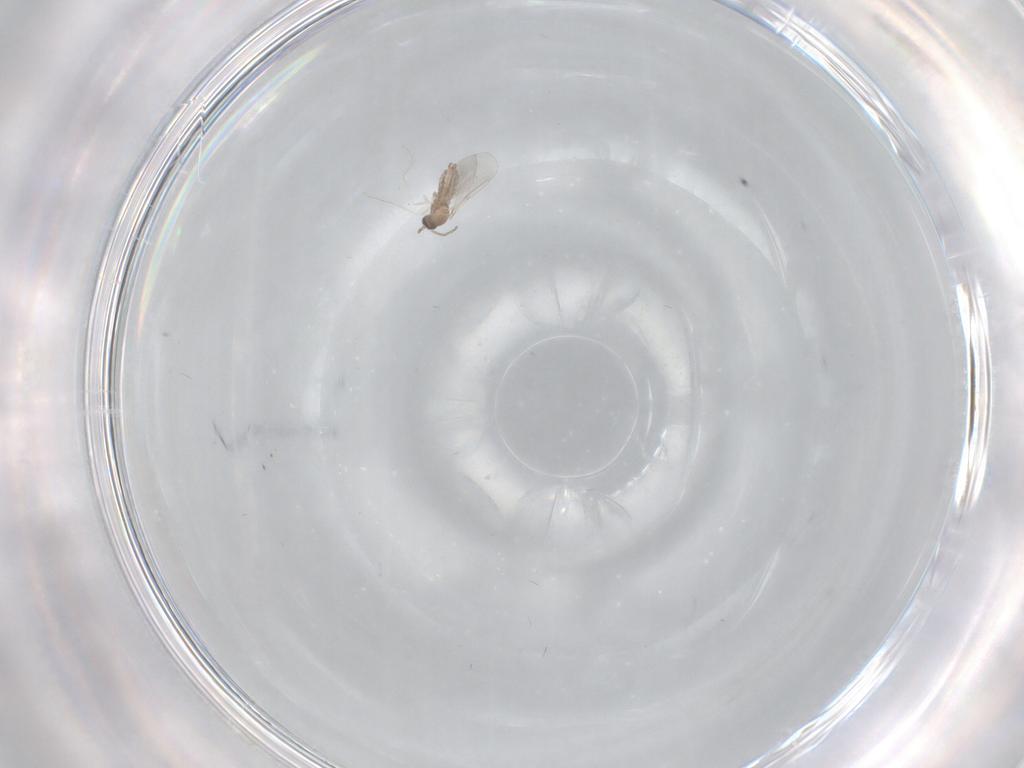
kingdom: Animalia
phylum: Arthropoda
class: Insecta
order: Diptera
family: Cecidomyiidae
